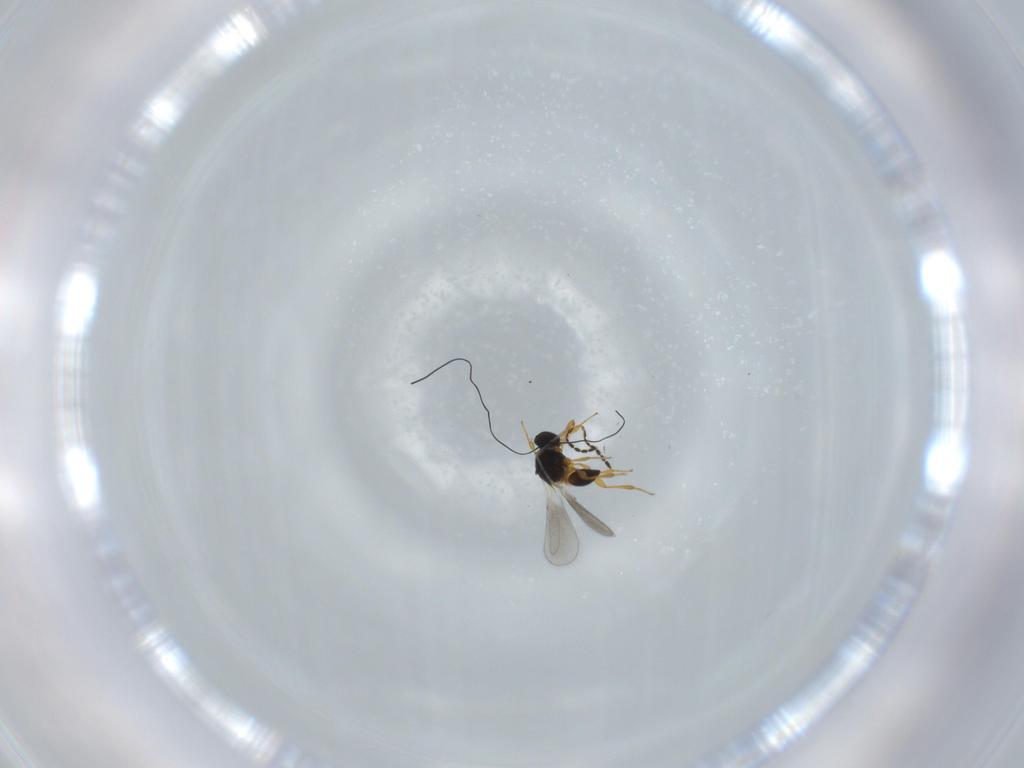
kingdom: Animalia
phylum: Arthropoda
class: Insecta
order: Hymenoptera
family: Platygastridae
